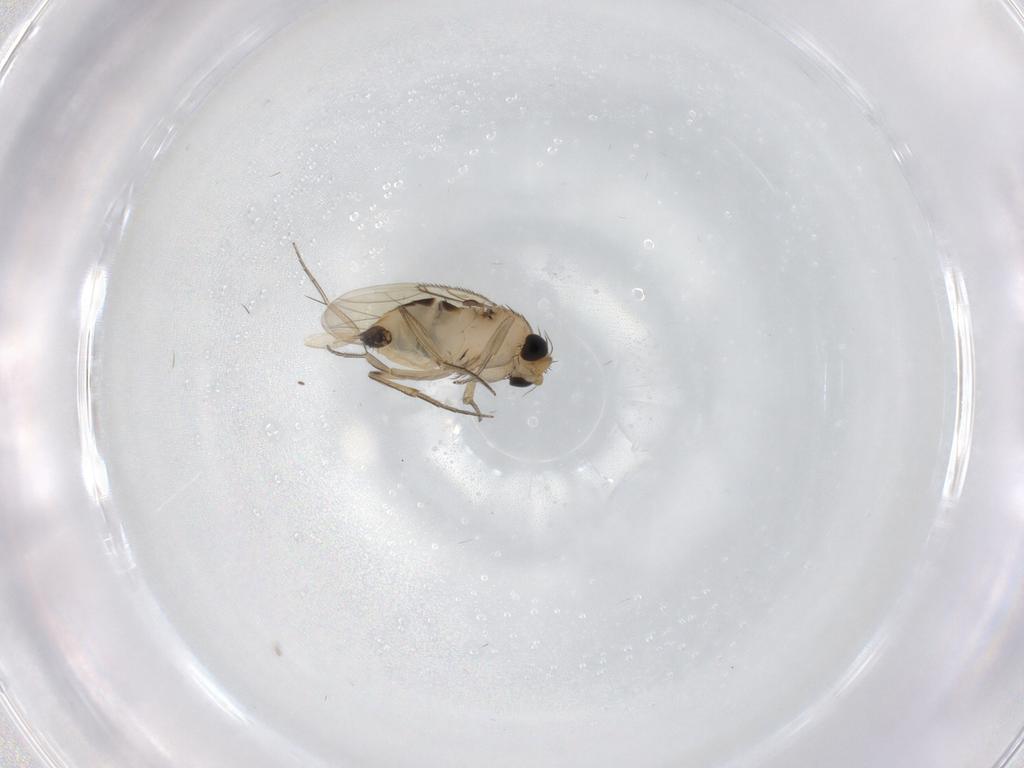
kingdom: Animalia
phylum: Arthropoda
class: Insecta
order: Diptera
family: Phoridae
